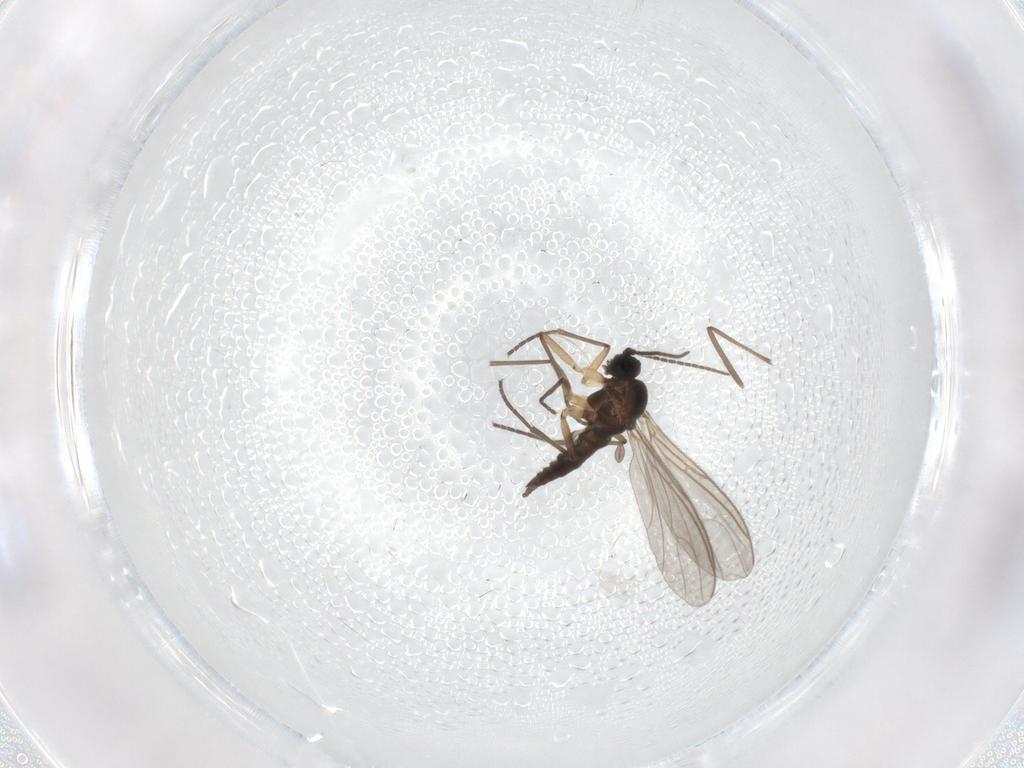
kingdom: Animalia
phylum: Arthropoda
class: Insecta
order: Diptera
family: Sciaridae
